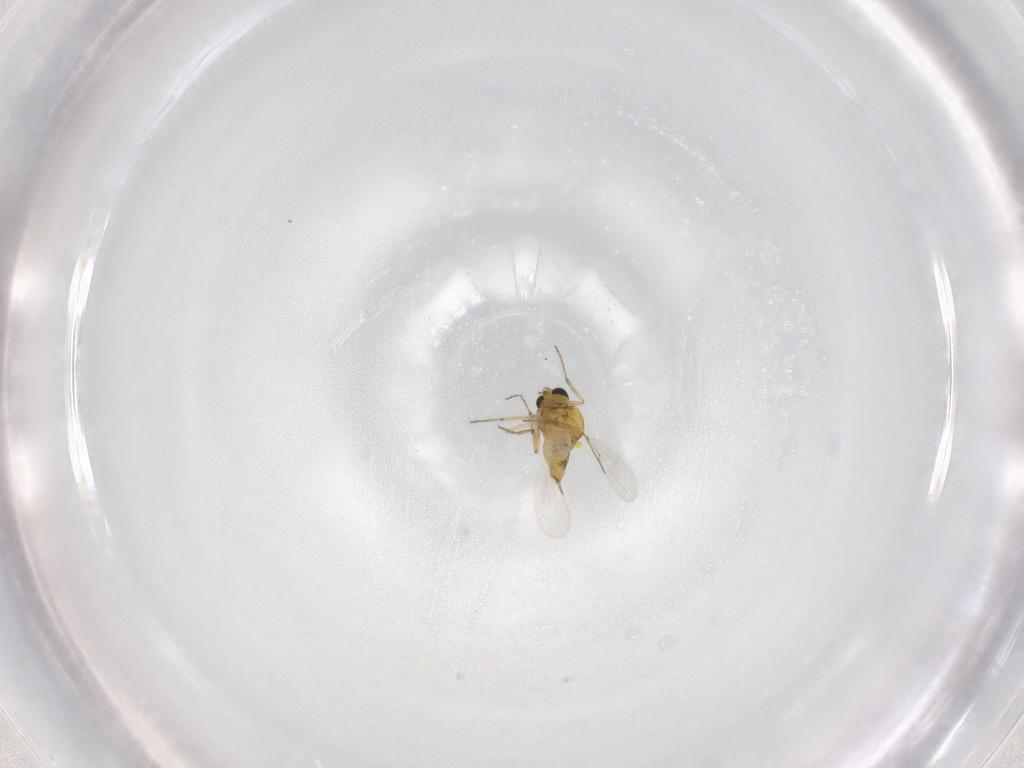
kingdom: Animalia
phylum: Arthropoda
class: Insecta
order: Diptera
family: Ceratopogonidae
